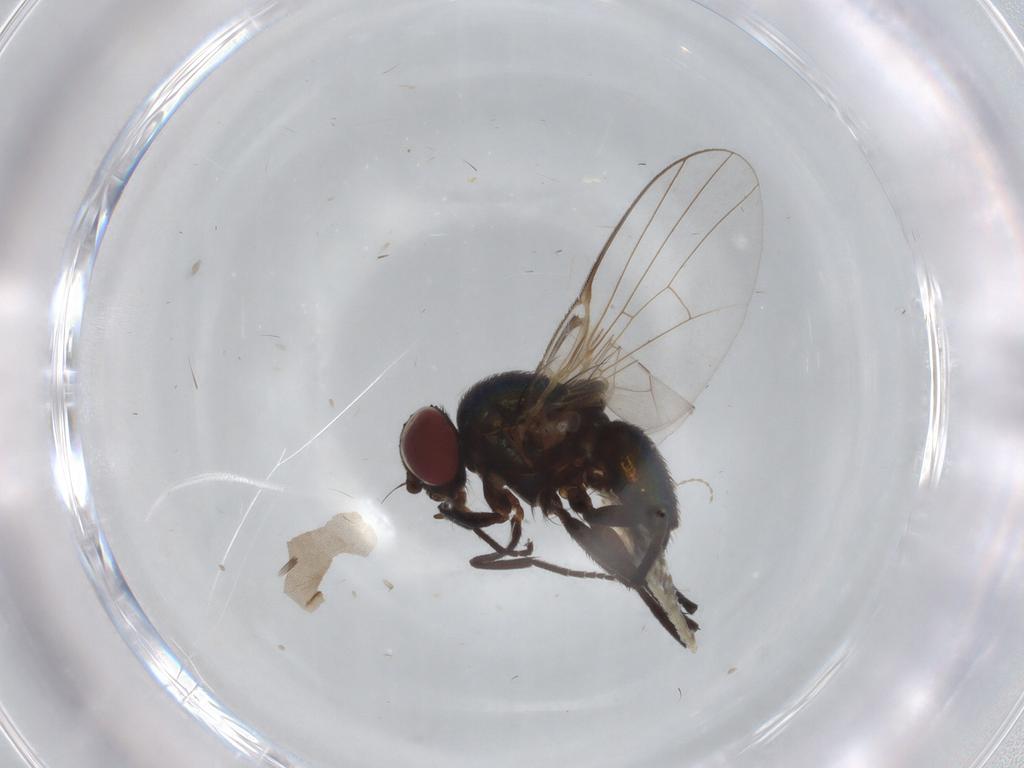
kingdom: Animalia
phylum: Arthropoda
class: Insecta
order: Diptera
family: Agromyzidae
